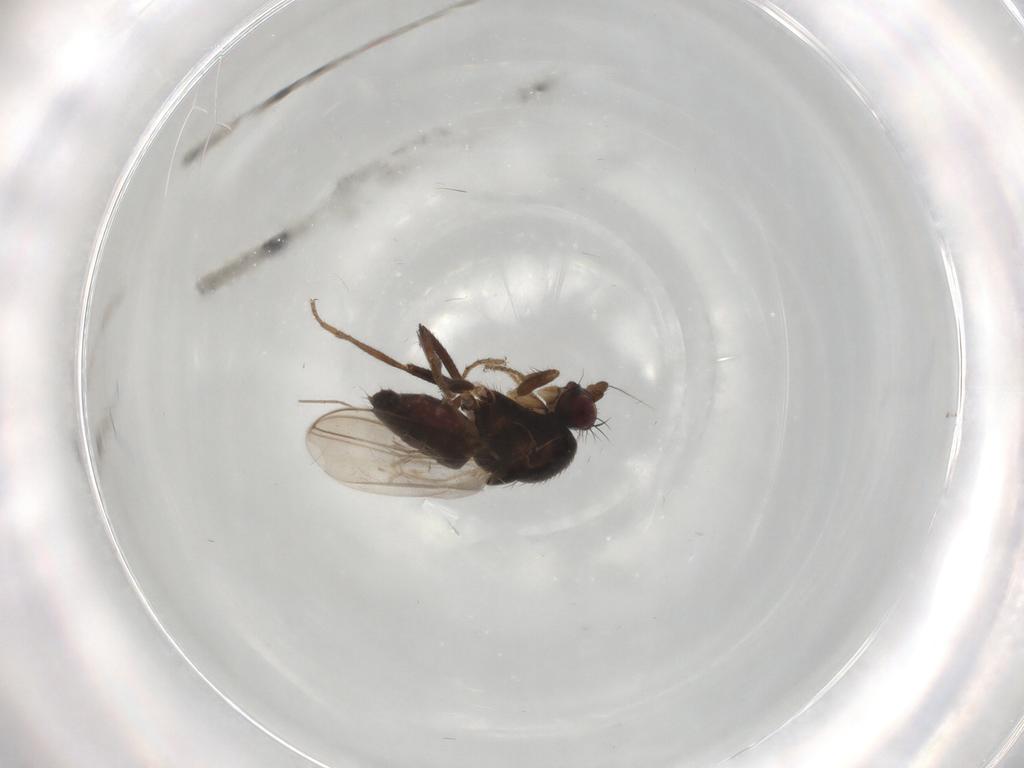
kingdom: Animalia
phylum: Arthropoda
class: Insecta
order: Diptera
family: Sphaeroceridae
